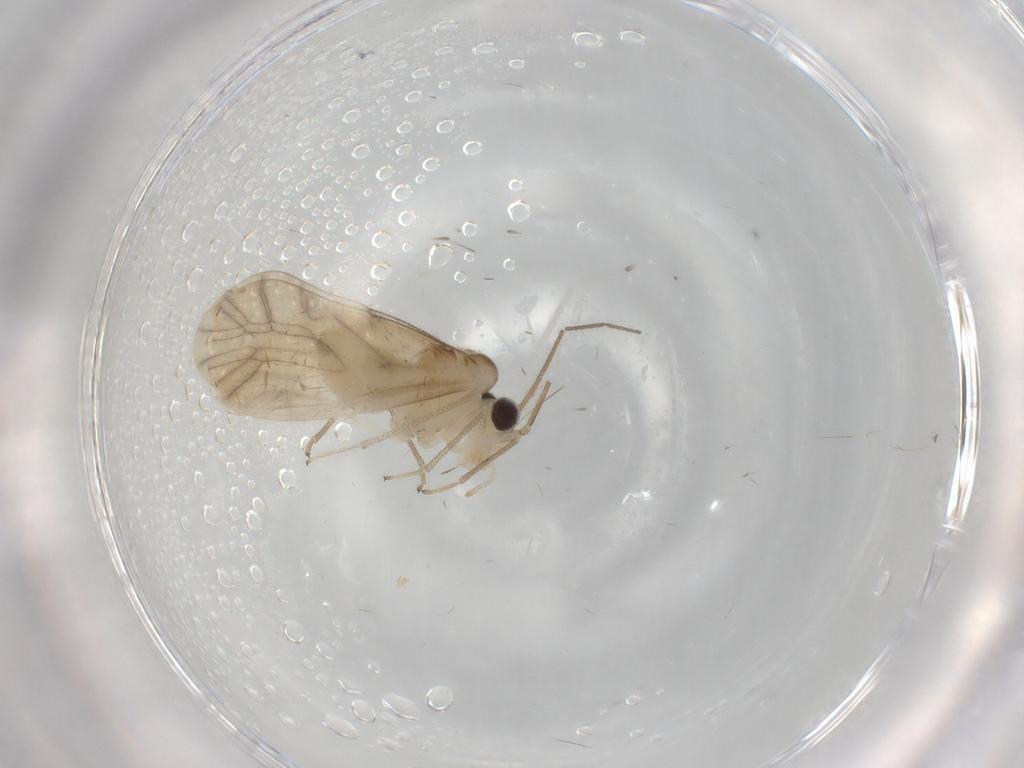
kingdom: Animalia
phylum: Arthropoda
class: Insecta
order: Psocodea
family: Caeciliusidae
